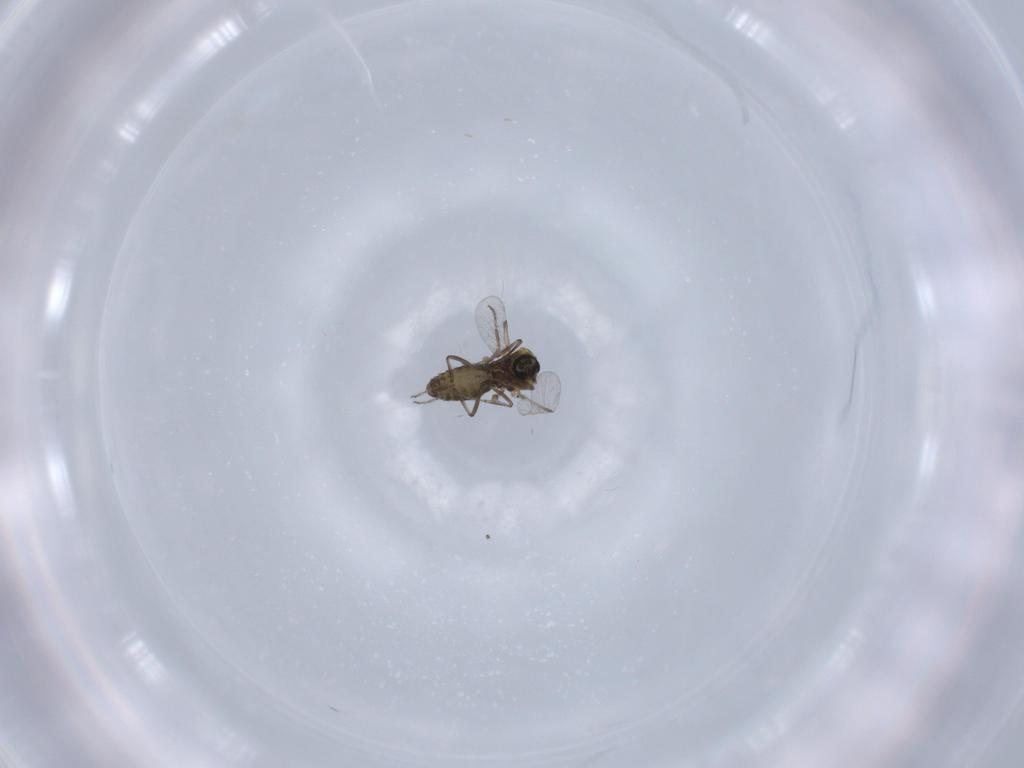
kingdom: Animalia
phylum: Arthropoda
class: Insecta
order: Diptera
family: Ceratopogonidae
